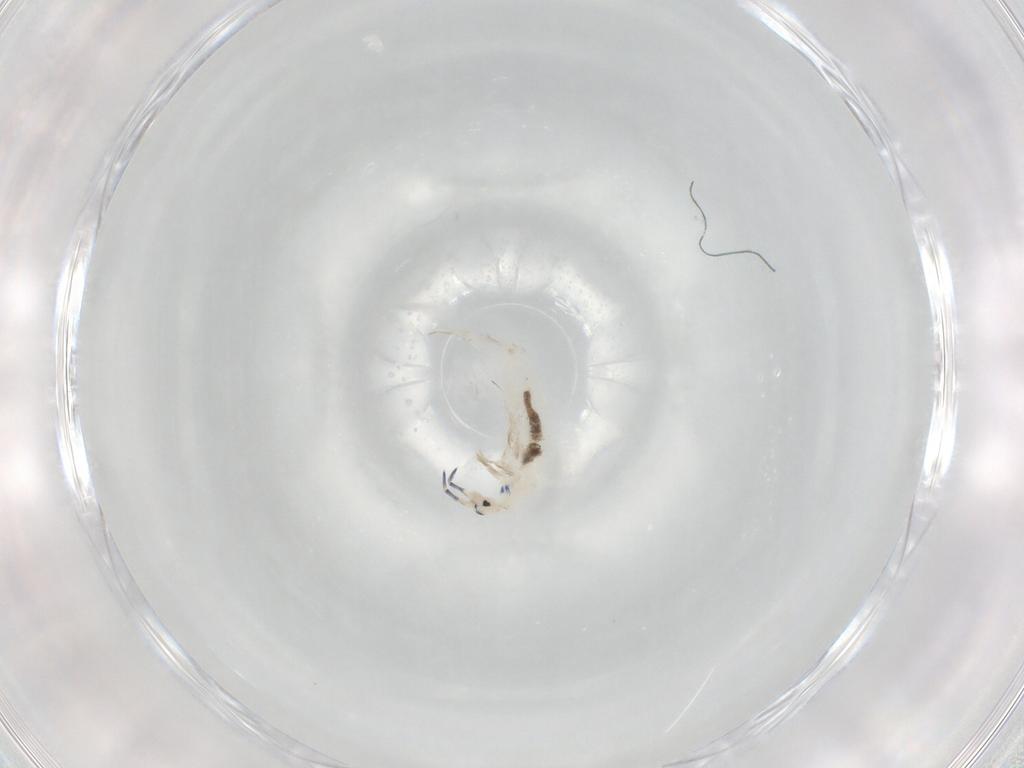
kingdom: Animalia
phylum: Arthropoda
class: Collembola
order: Entomobryomorpha
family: Entomobryidae
